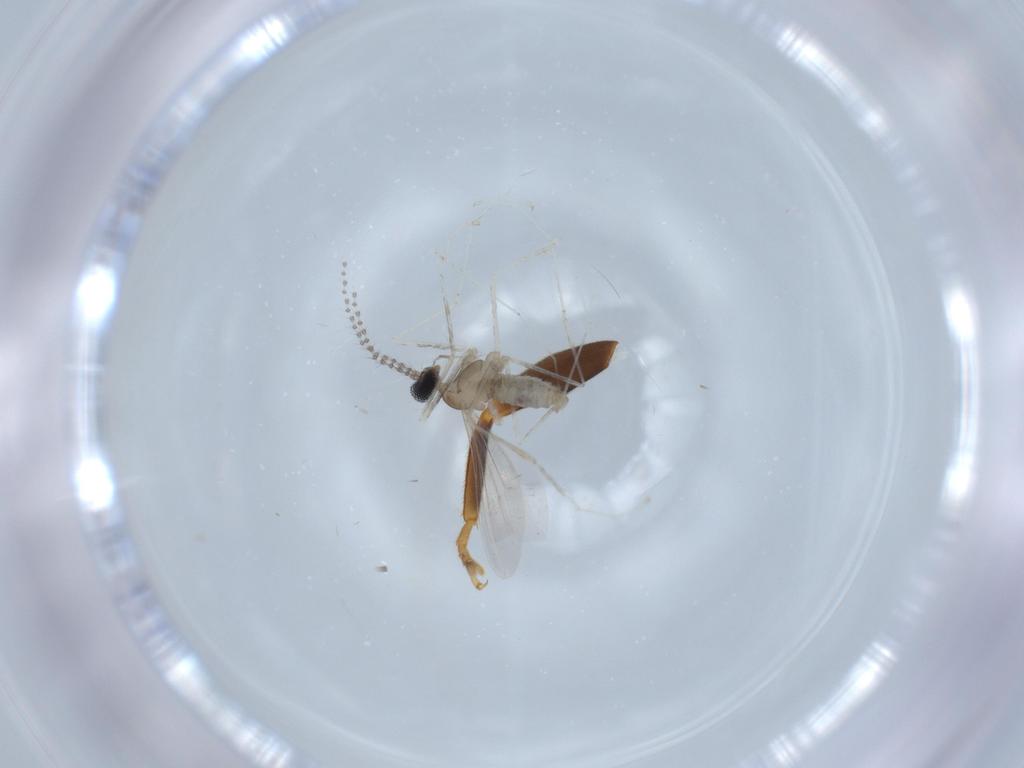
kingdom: Animalia
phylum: Arthropoda
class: Insecta
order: Diptera
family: Cecidomyiidae
